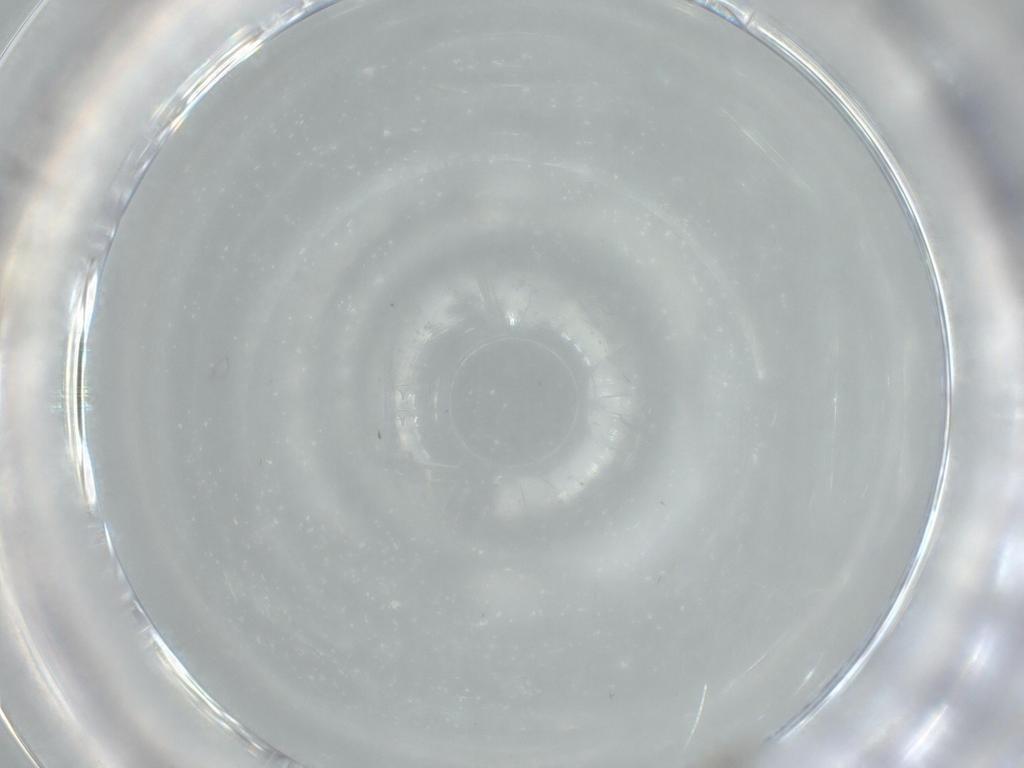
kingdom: Animalia
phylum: Arthropoda
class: Insecta
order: Diptera
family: Cecidomyiidae
